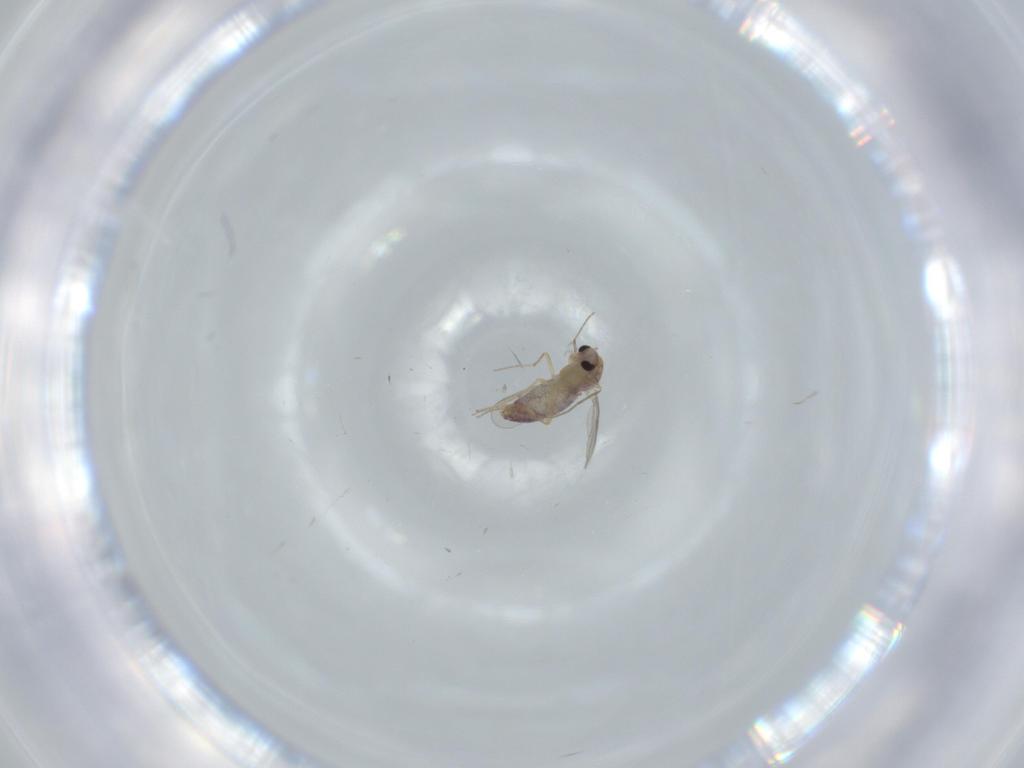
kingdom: Animalia
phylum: Arthropoda
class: Insecta
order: Diptera
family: Chironomidae
